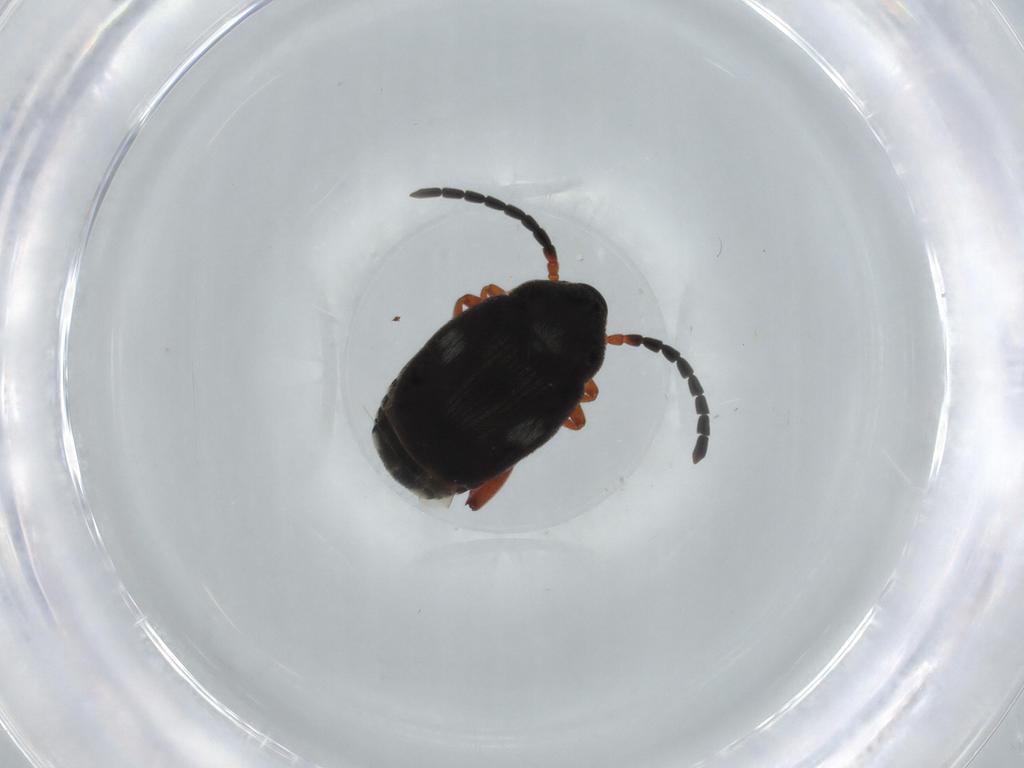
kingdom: Animalia
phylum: Arthropoda
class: Insecta
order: Coleoptera
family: Chrysomelidae
